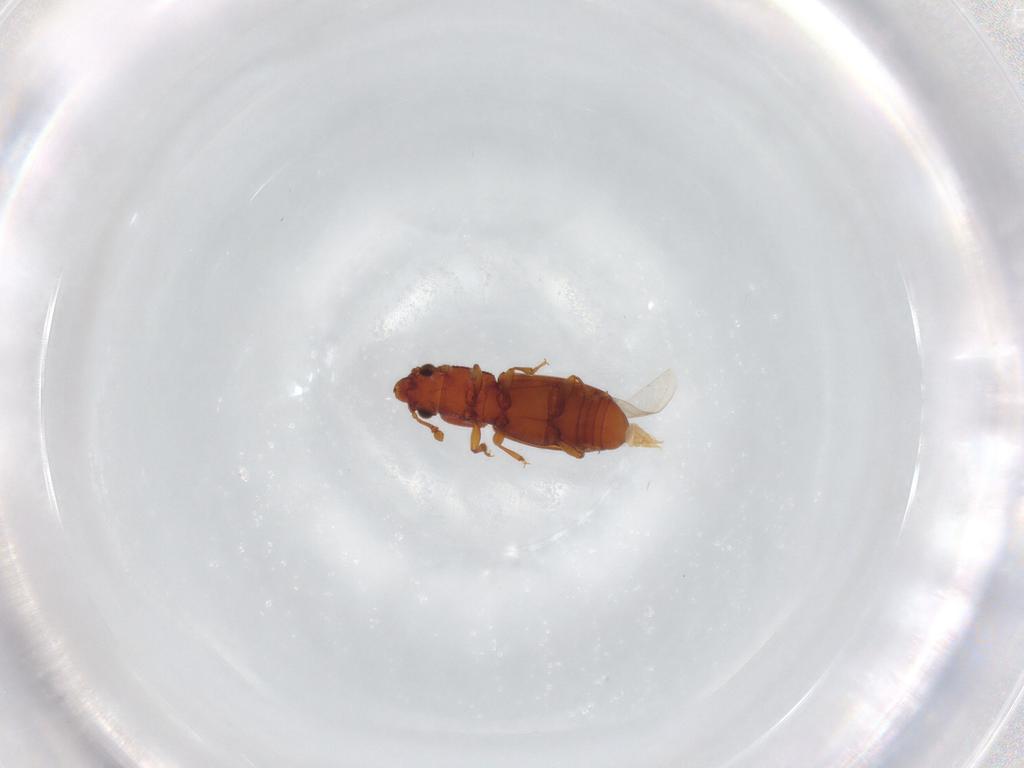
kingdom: Animalia
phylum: Arthropoda
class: Insecta
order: Coleoptera
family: Monotomidae
